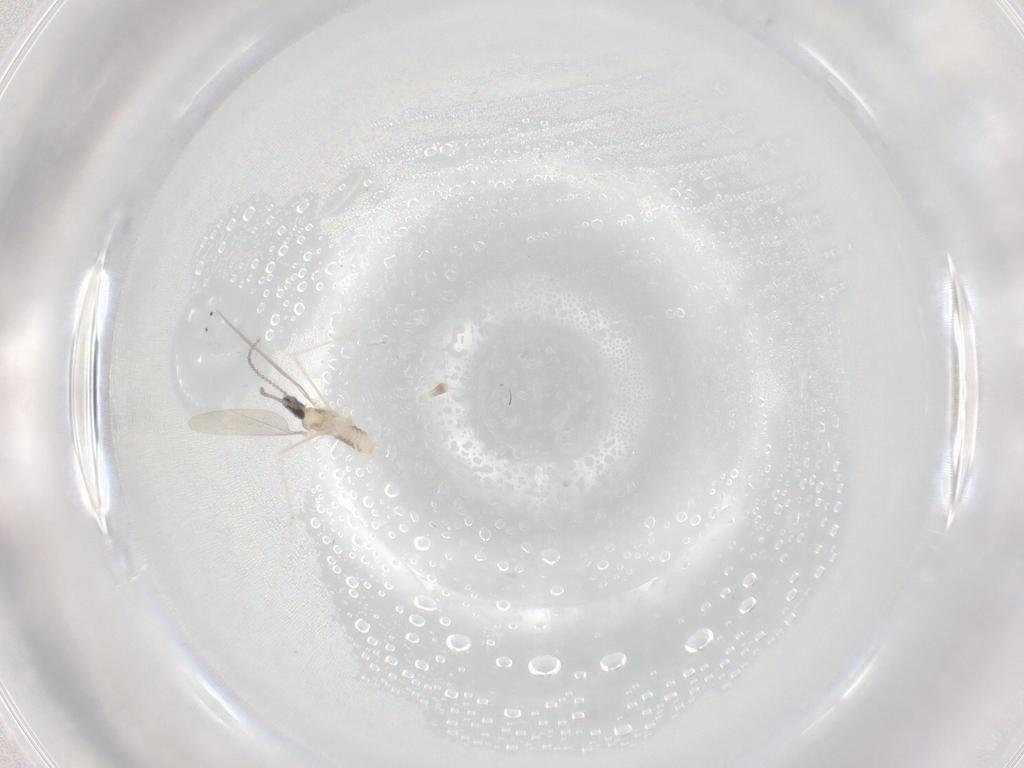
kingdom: Animalia
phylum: Arthropoda
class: Insecta
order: Diptera
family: Cecidomyiidae
